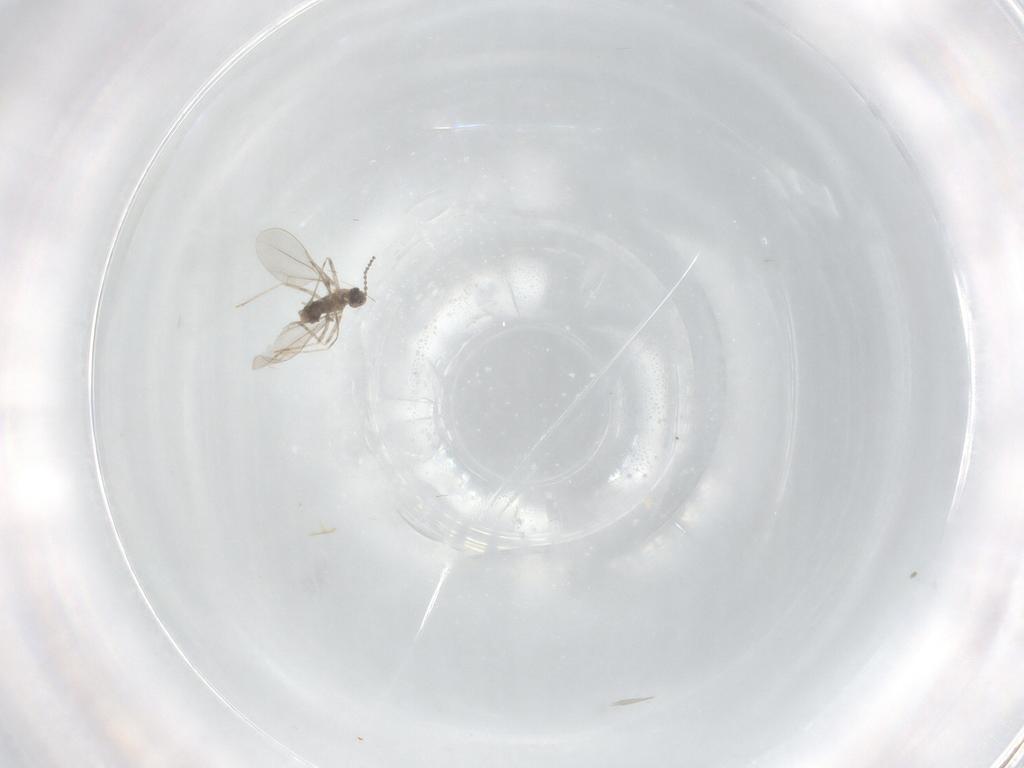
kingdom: Animalia
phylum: Arthropoda
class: Insecta
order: Diptera
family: Cecidomyiidae
